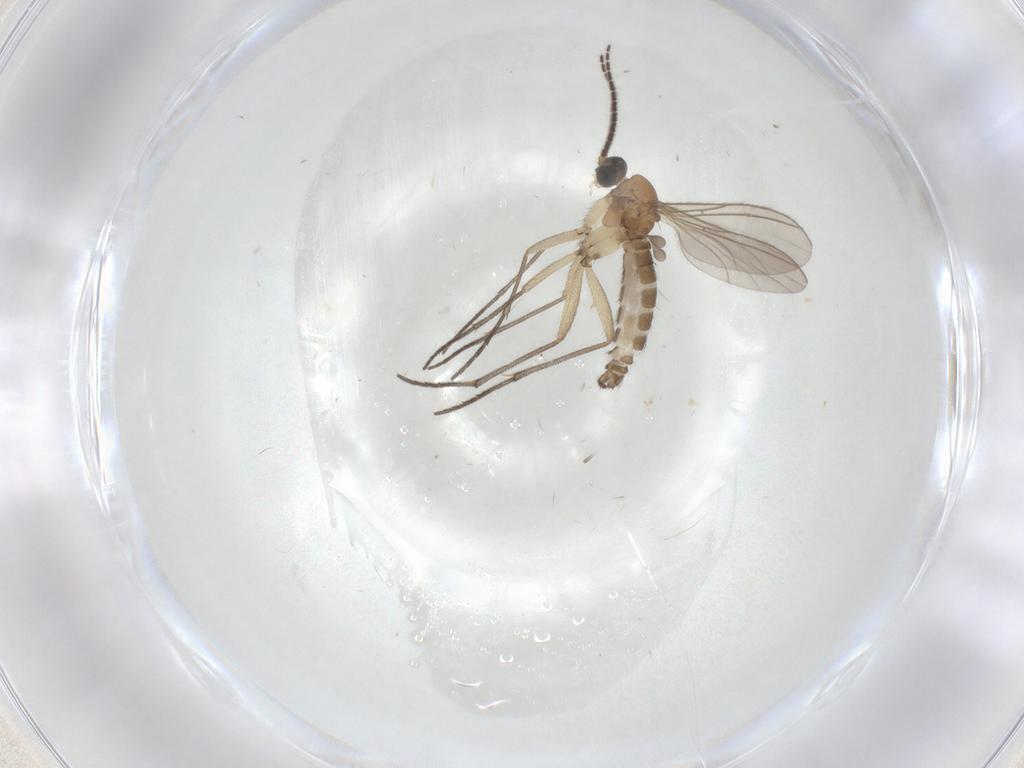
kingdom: Animalia
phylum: Arthropoda
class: Insecta
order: Diptera
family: Sciaridae
